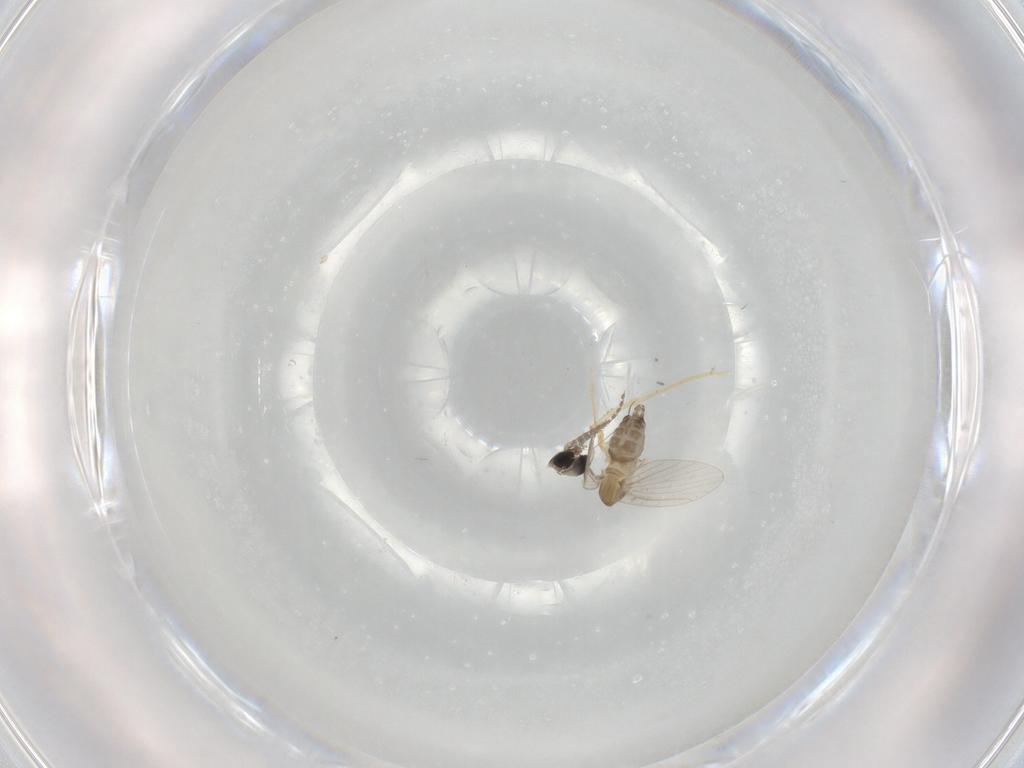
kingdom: Animalia
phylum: Arthropoda
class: Insecta
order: Diptera
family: Psychodidae
